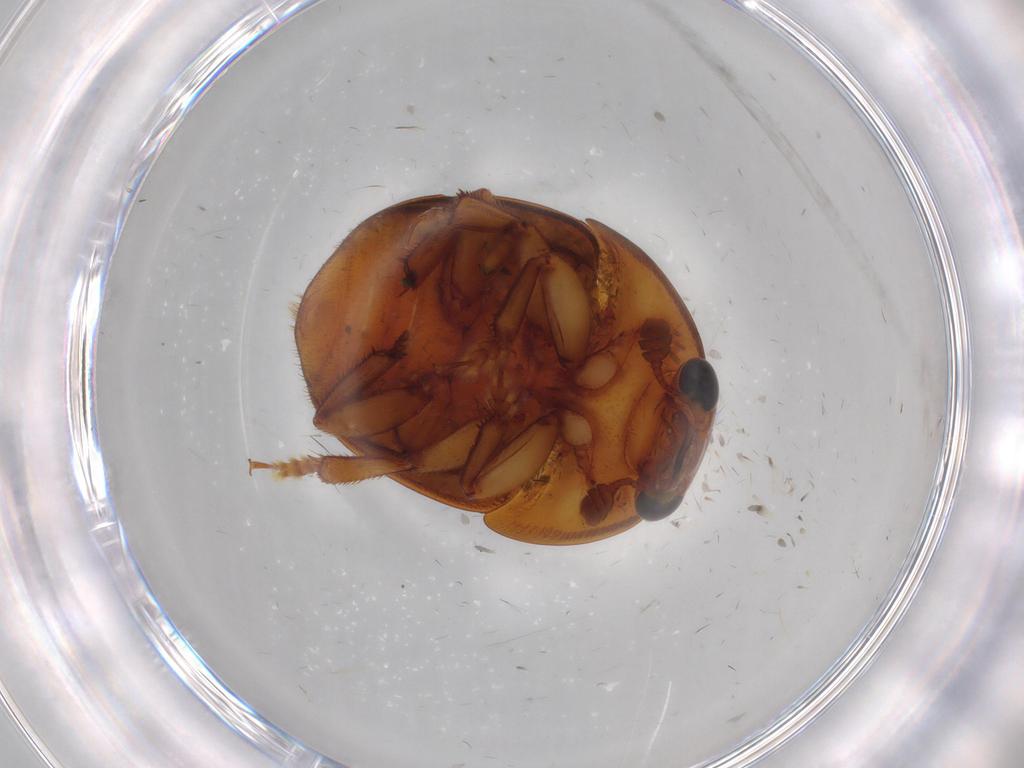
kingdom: Animalia
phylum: Arthropoda
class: Insecta
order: Coleoptera
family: Nitidulidae
